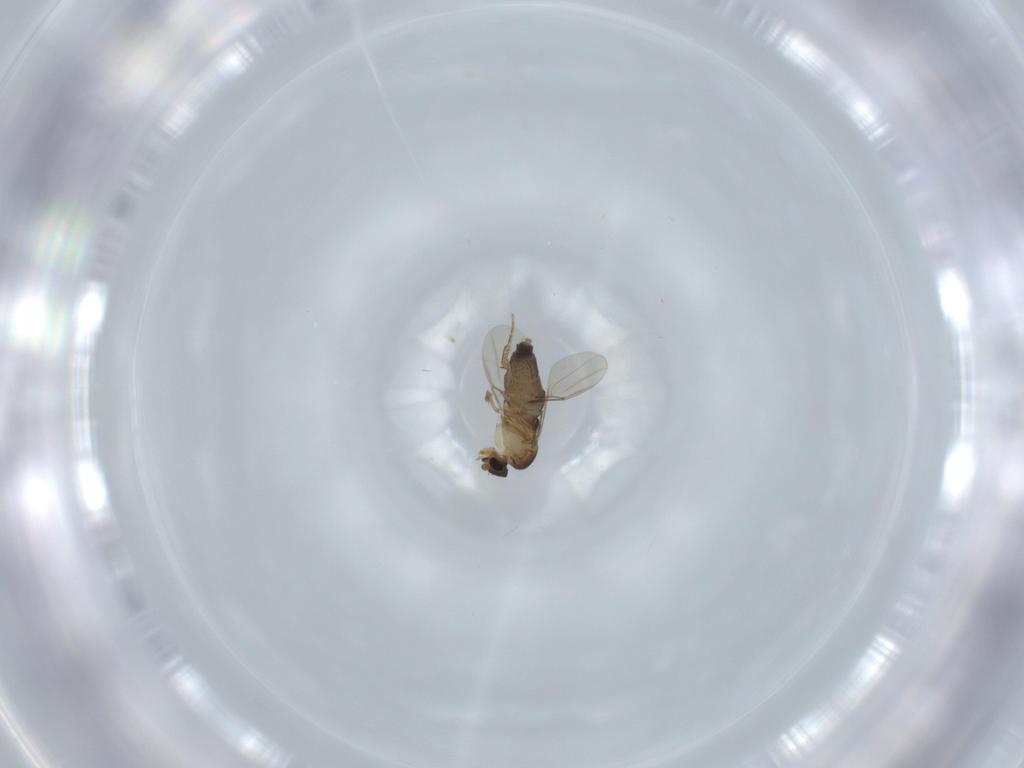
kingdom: Animalia
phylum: Arthropoda
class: Insecta
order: Diptera
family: Phoridae
